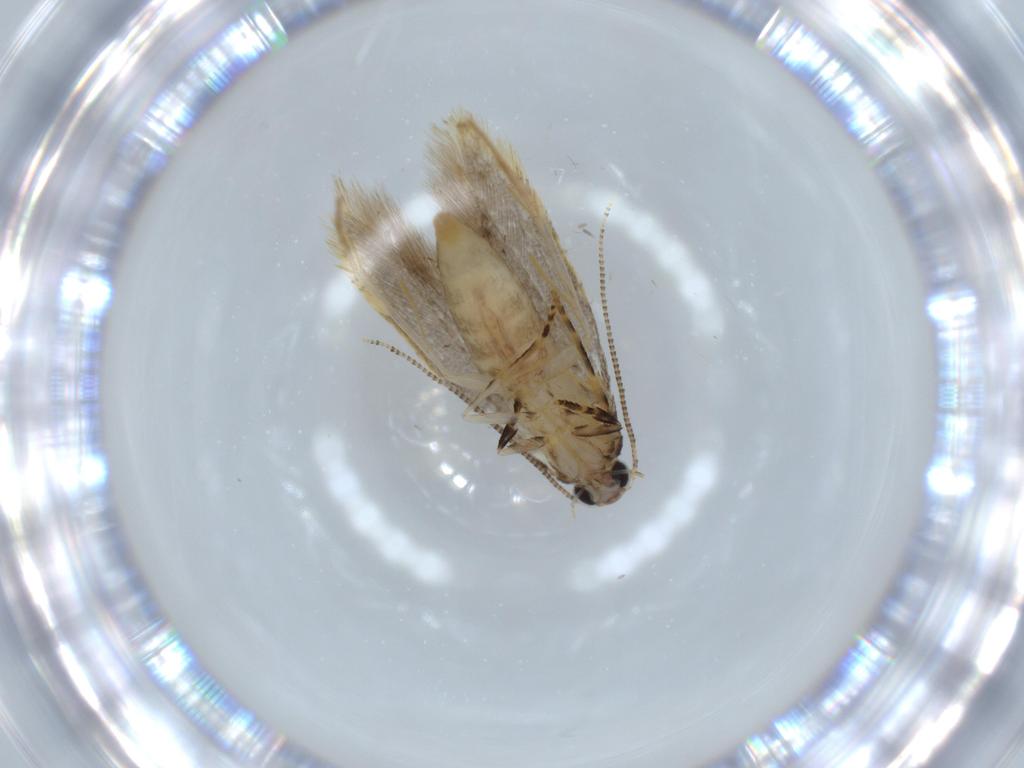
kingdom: Animalia
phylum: Arthropoda
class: Insecta
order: Lepidoptera
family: Tineidae
